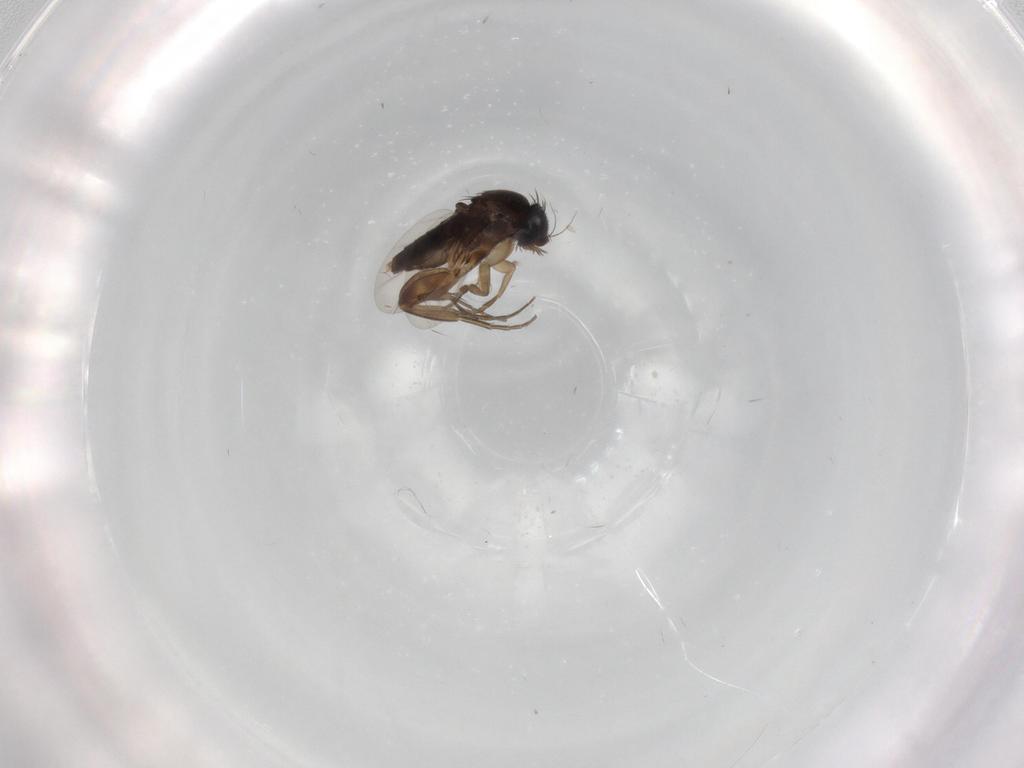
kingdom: Animalia
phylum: Arthropoda
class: Insecta
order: Diptera
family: Phoridae
